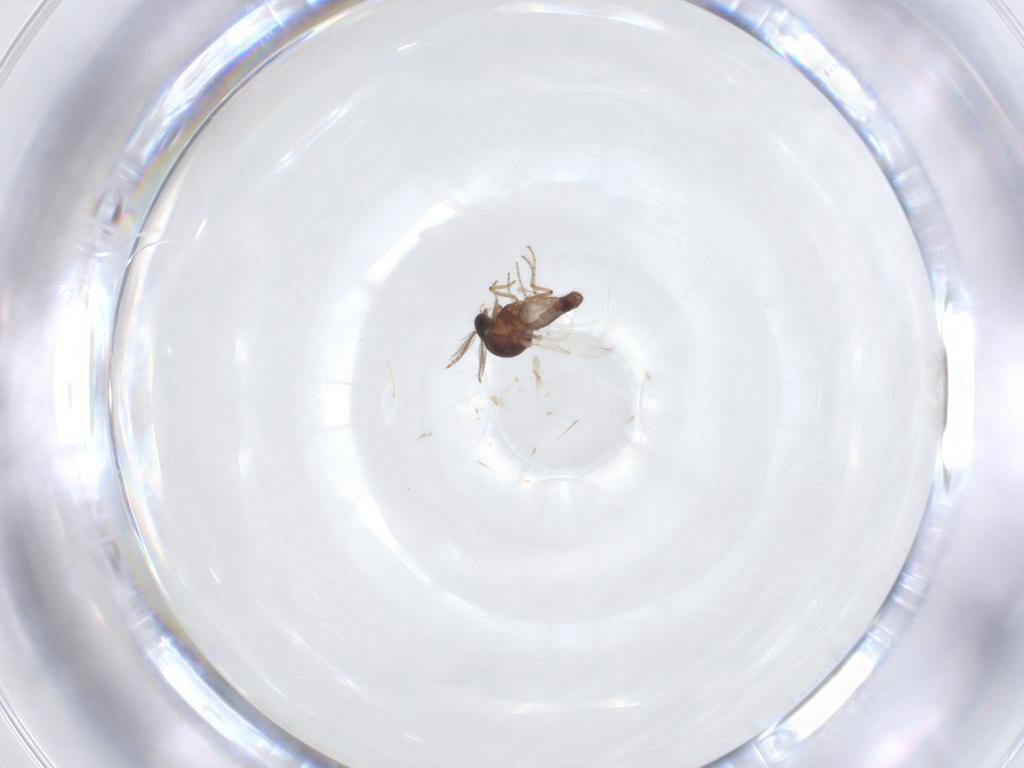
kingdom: Animalia
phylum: Arthropoda
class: Insecta
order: Diptera
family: Ceratopogonidae
